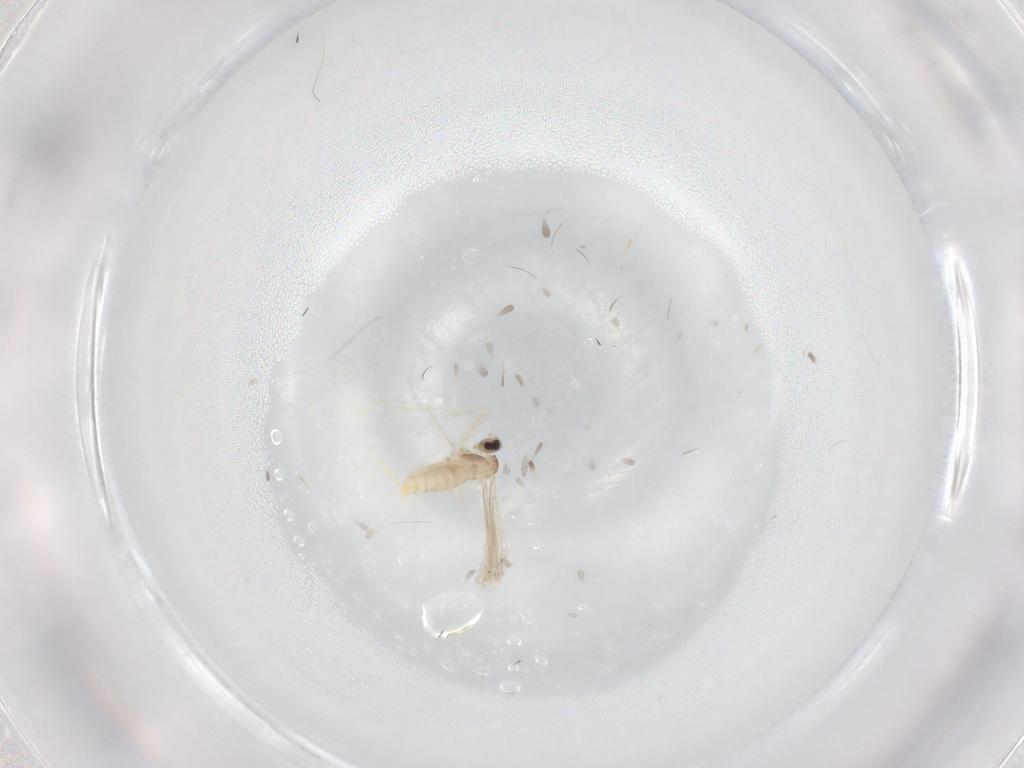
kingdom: Animalia
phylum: Arthropoda
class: Insecta
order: Diptera
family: Cecidomyiidae
